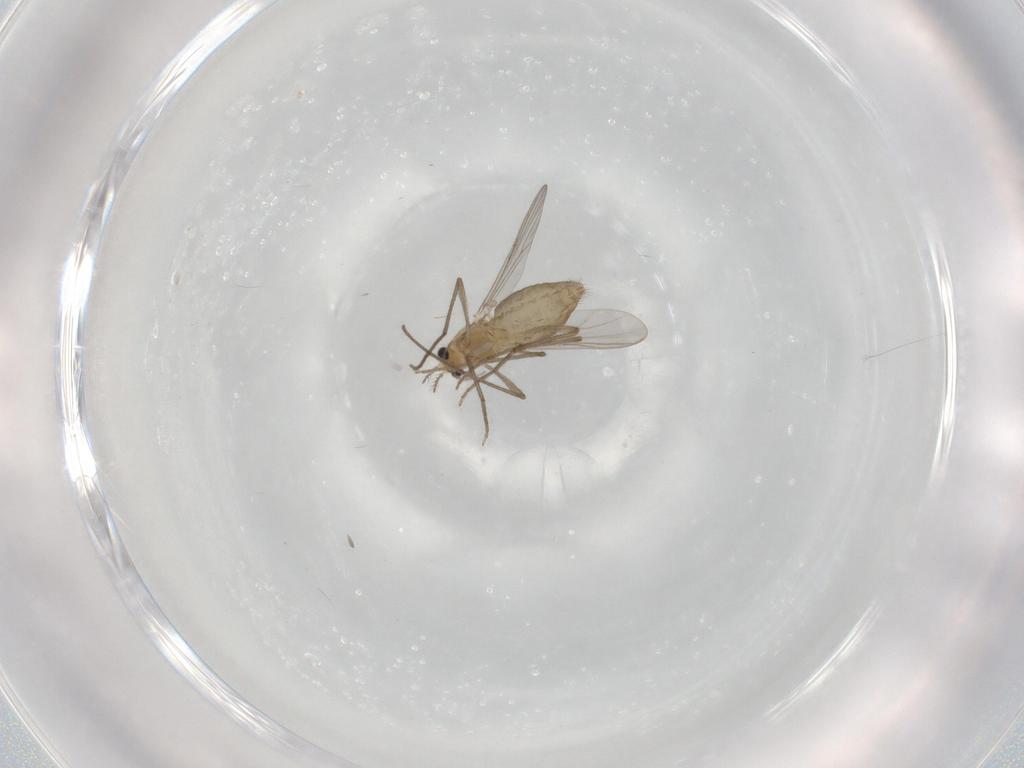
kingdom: Animalia
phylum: Arthropoda
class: Insecta
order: Diptera
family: Chironomidae
